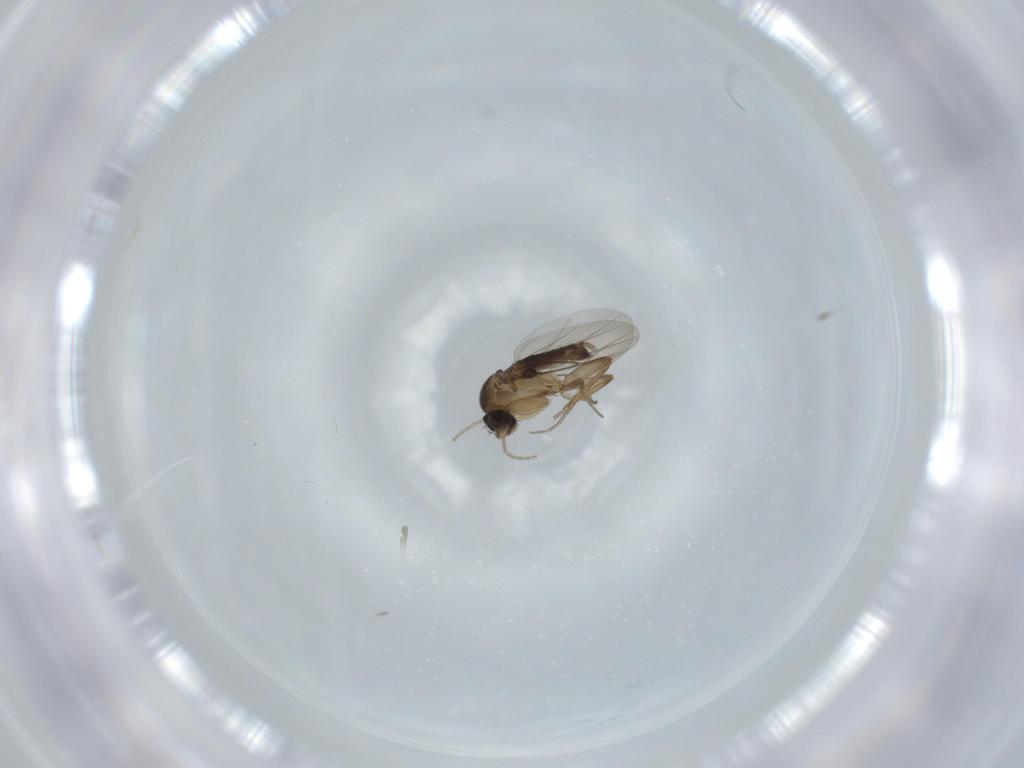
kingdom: Animalia
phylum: Arthropoda
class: Insecta
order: Diptera
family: Phoridae
